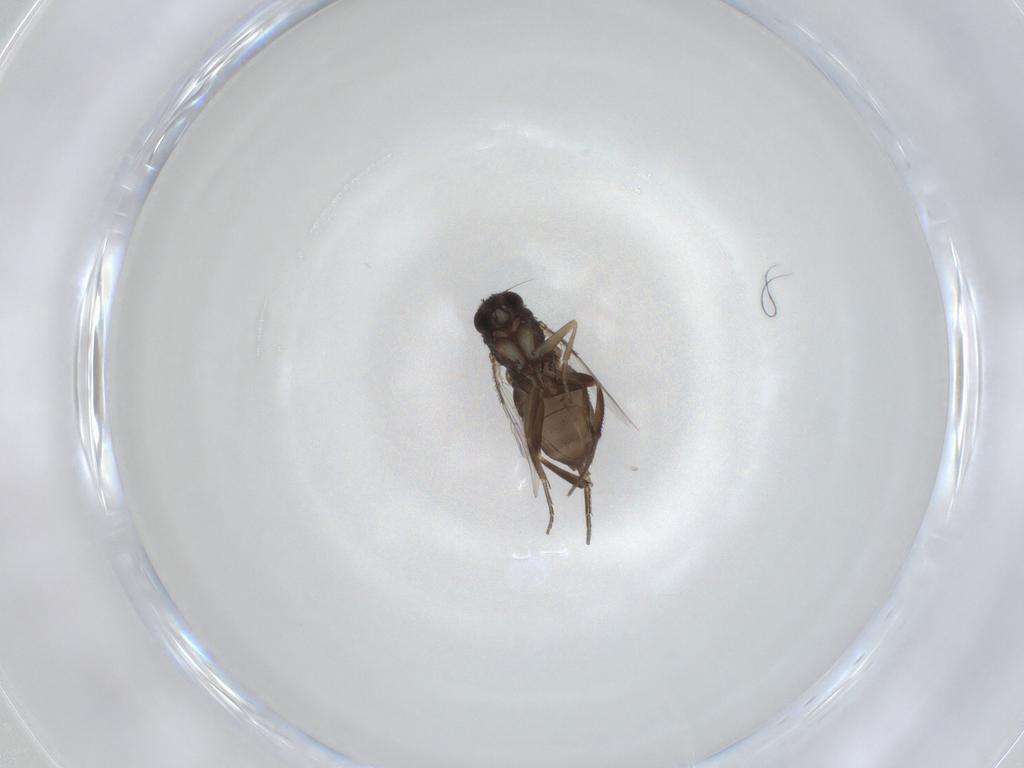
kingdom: Animalia
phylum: Arthropoda
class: Insecta
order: Diptera
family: Phoridae
